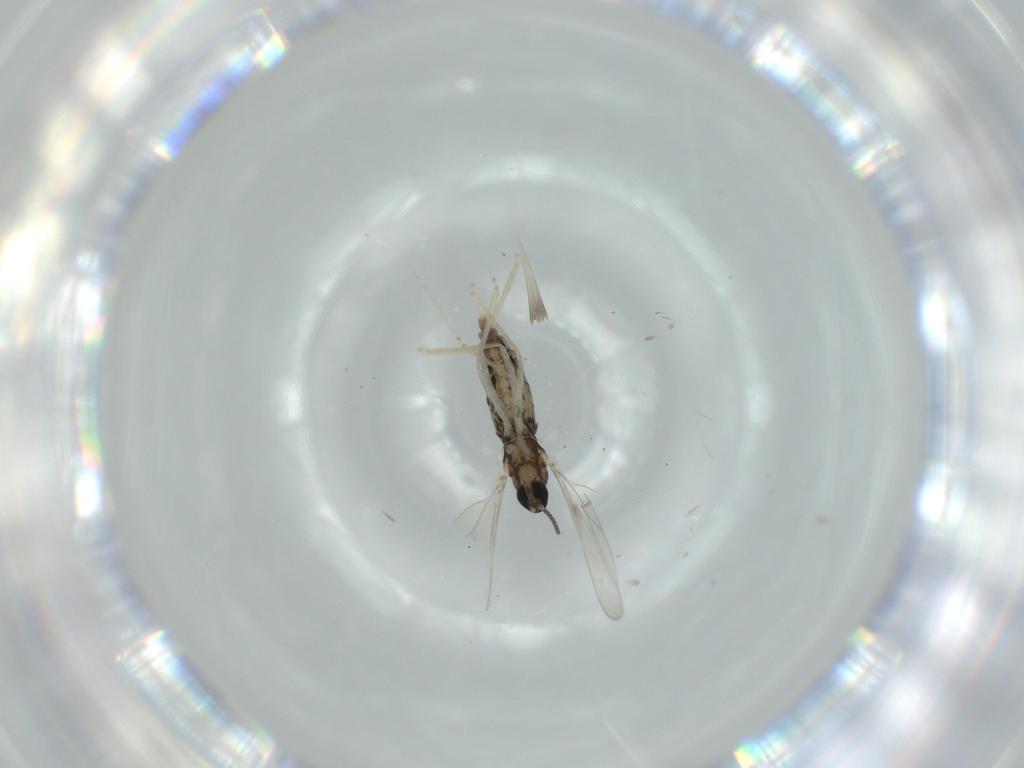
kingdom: Animalia
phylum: Arthropoda
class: Insecta
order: Diptera
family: Cecidomyiidae
